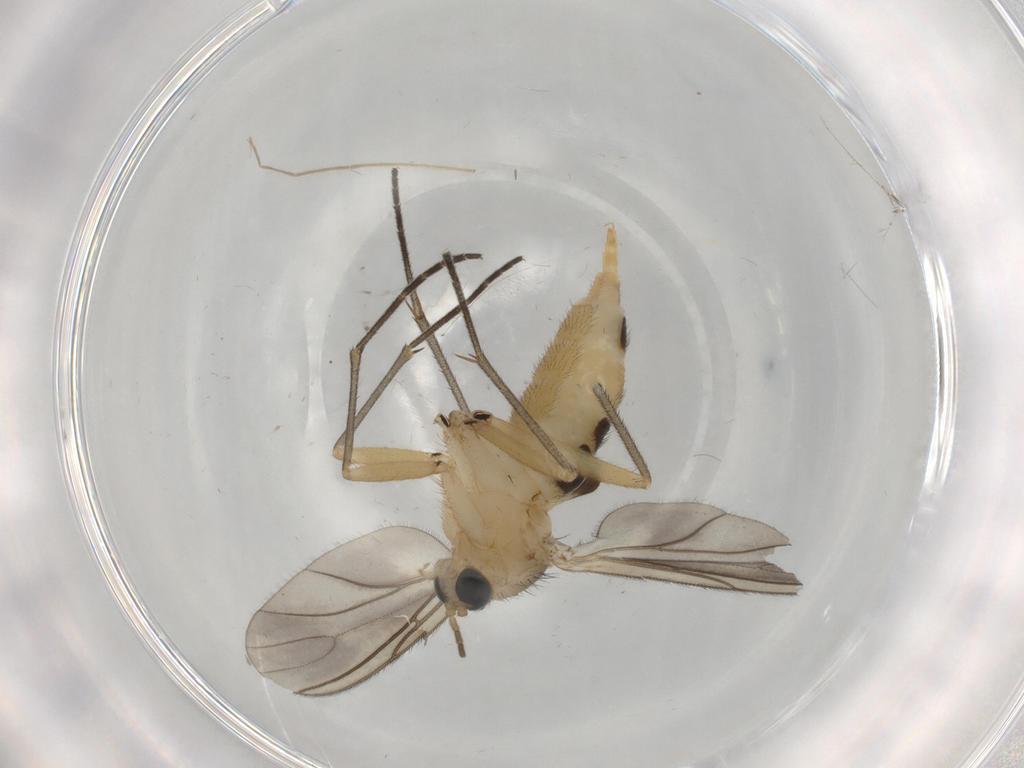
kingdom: Animalia
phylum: Arthropoda
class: Insecta
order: Diptera
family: Sciaridae
